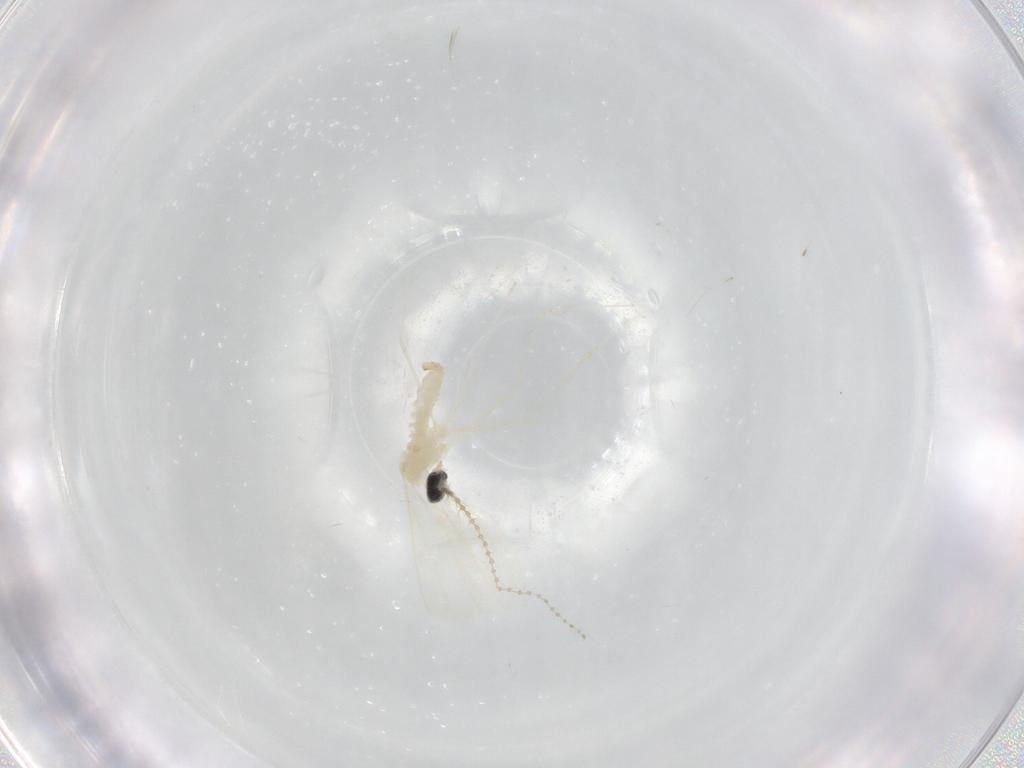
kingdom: Animalia
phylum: Arthropoda
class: Insecta
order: Diptera
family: Cecidomyiidae
